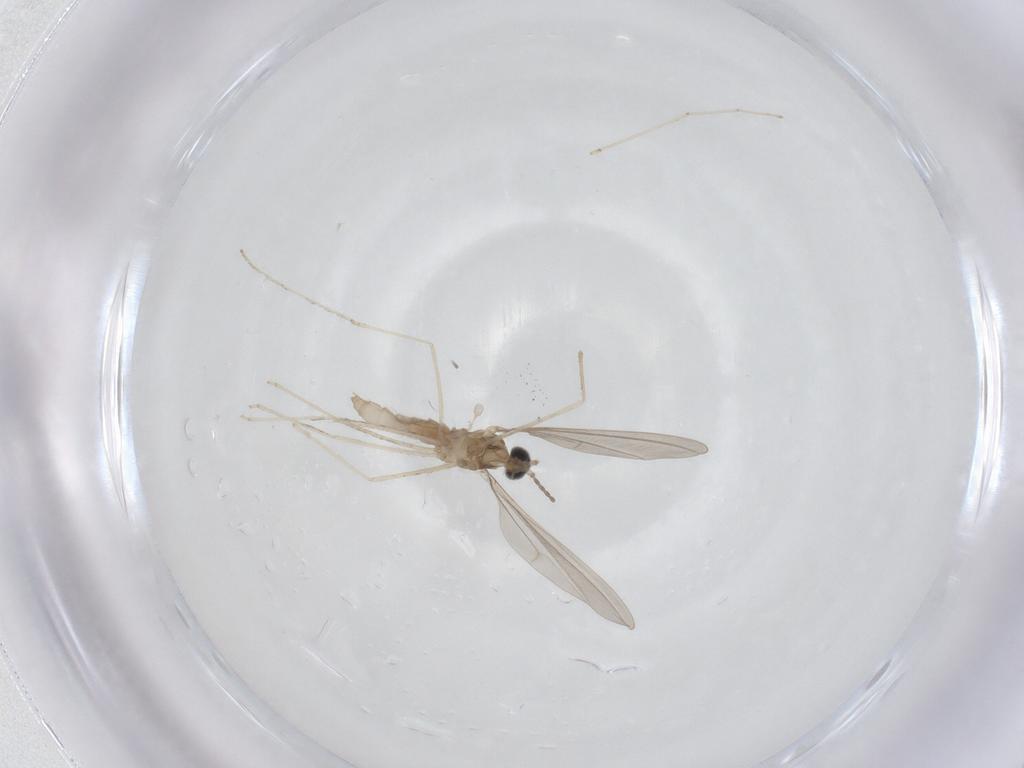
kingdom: Animalia
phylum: Arthropoda
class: Insecta
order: Diptera
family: Cecidomyiidae
